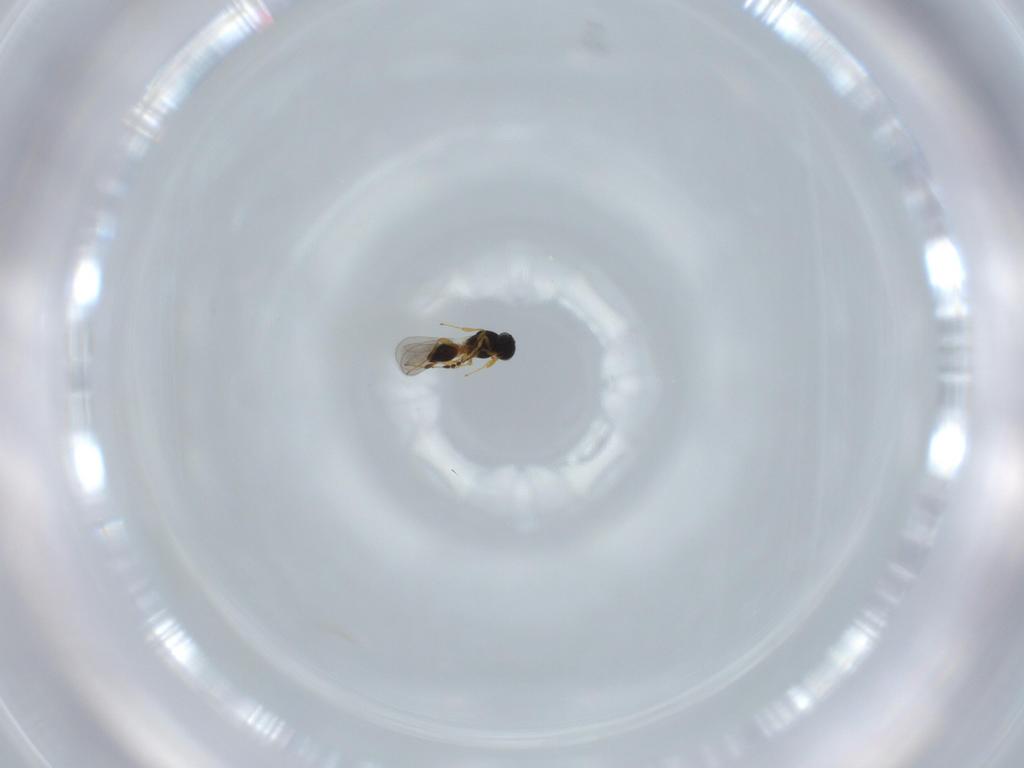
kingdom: Animalia
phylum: Arthropoda
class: Insecta
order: Hymenoptera
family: Platygastridae
